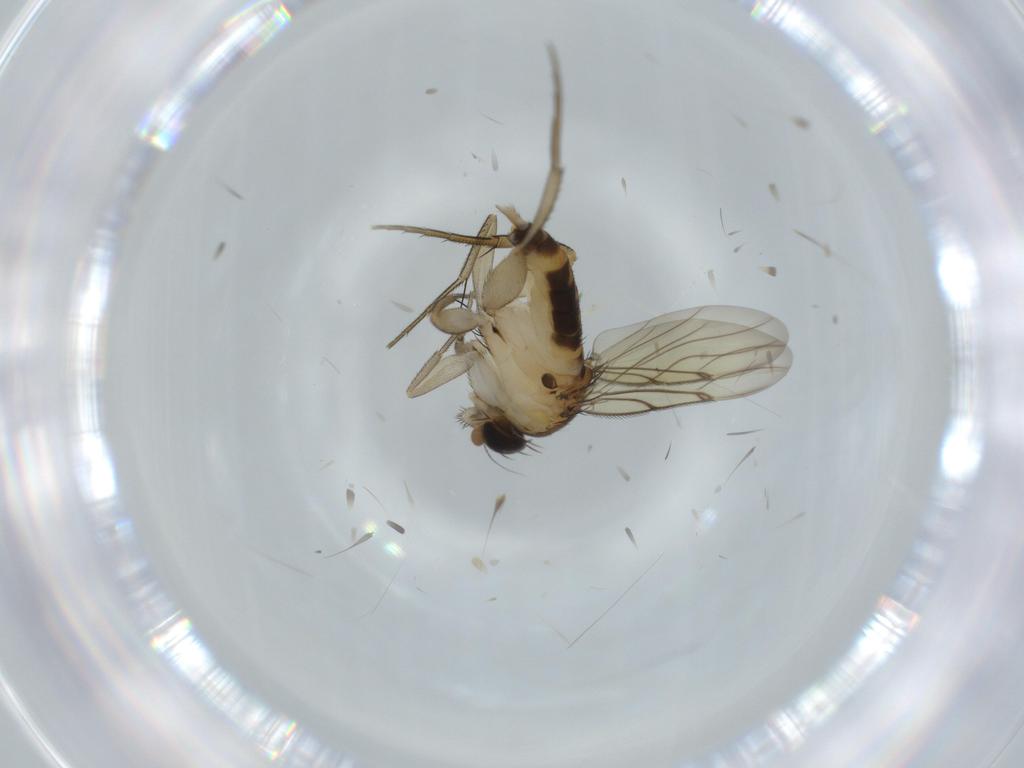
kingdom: Animalia
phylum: Arthropoda
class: Insecta
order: Diptera
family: Phoridae
